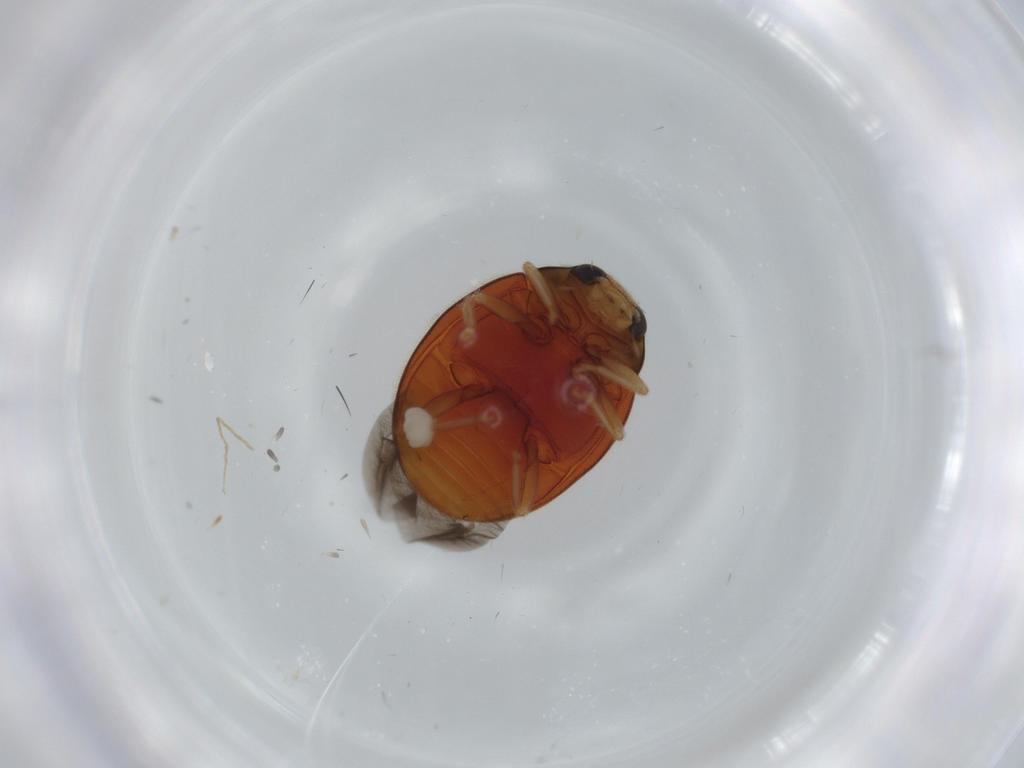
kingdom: Animalia
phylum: Arthropoda
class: Insecta
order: Coleoptera
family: Coccinellidae
